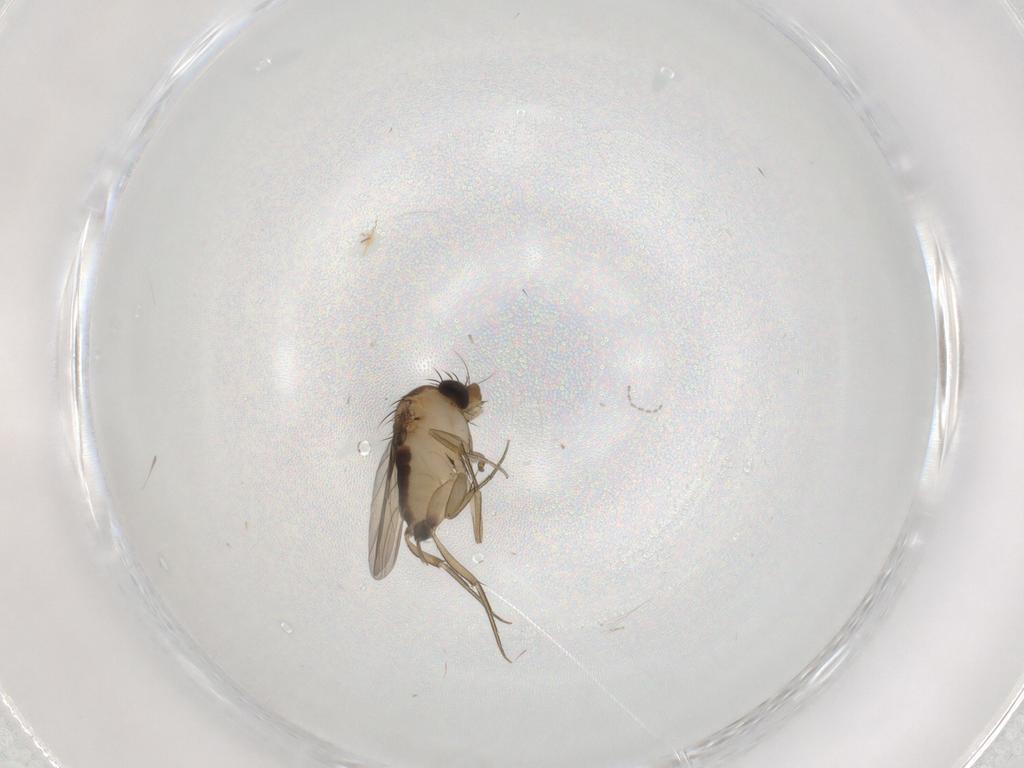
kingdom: Animalia
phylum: Arthropoda
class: Insecta
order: Diptera
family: Phoridae
